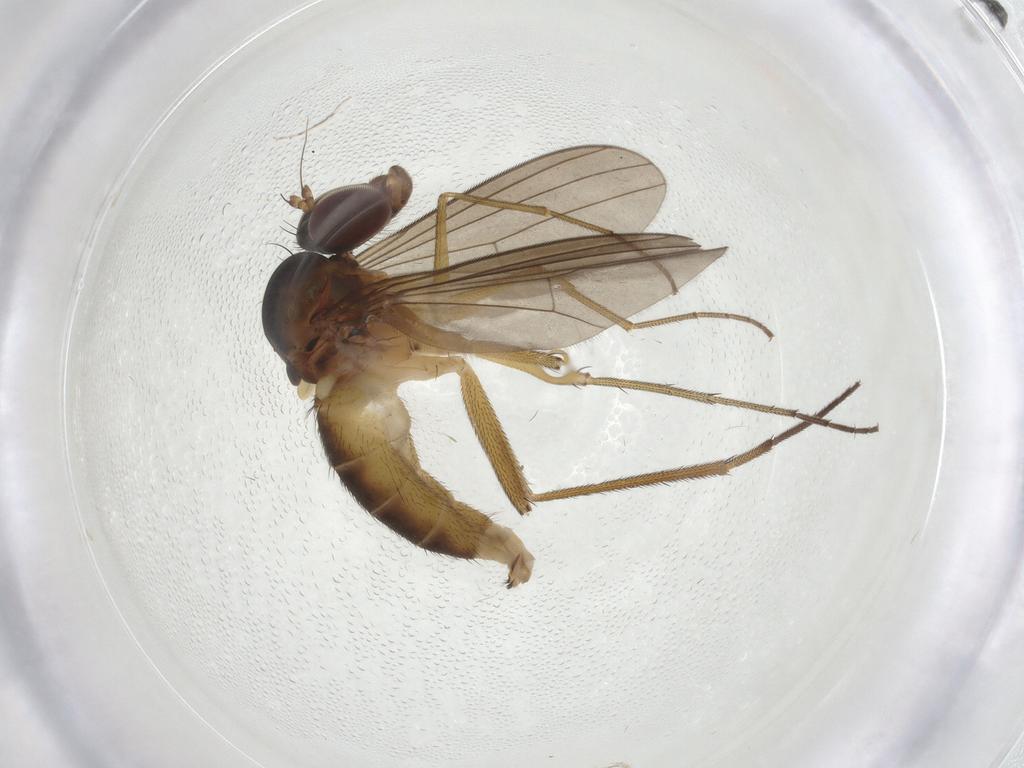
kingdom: Animalia
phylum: Arthropoda
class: Insecta
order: Diptera
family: Dolichopodidae
